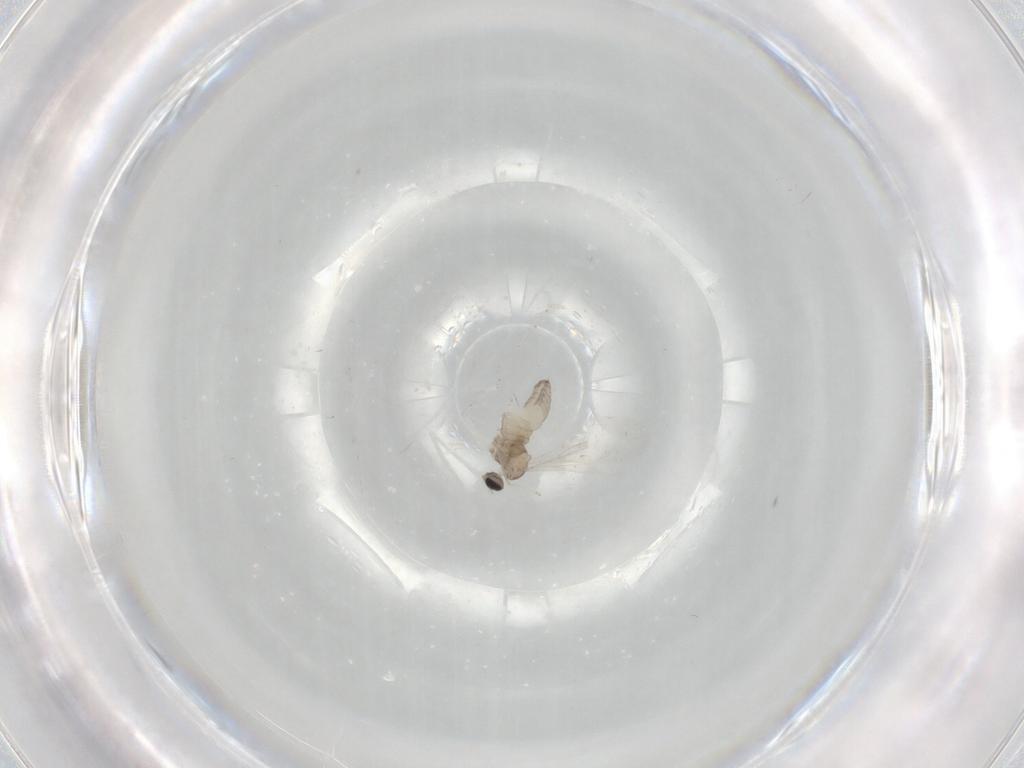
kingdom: Animalia
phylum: Arthropoda
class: Insecta
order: Diptera
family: Cecidomyiidae
